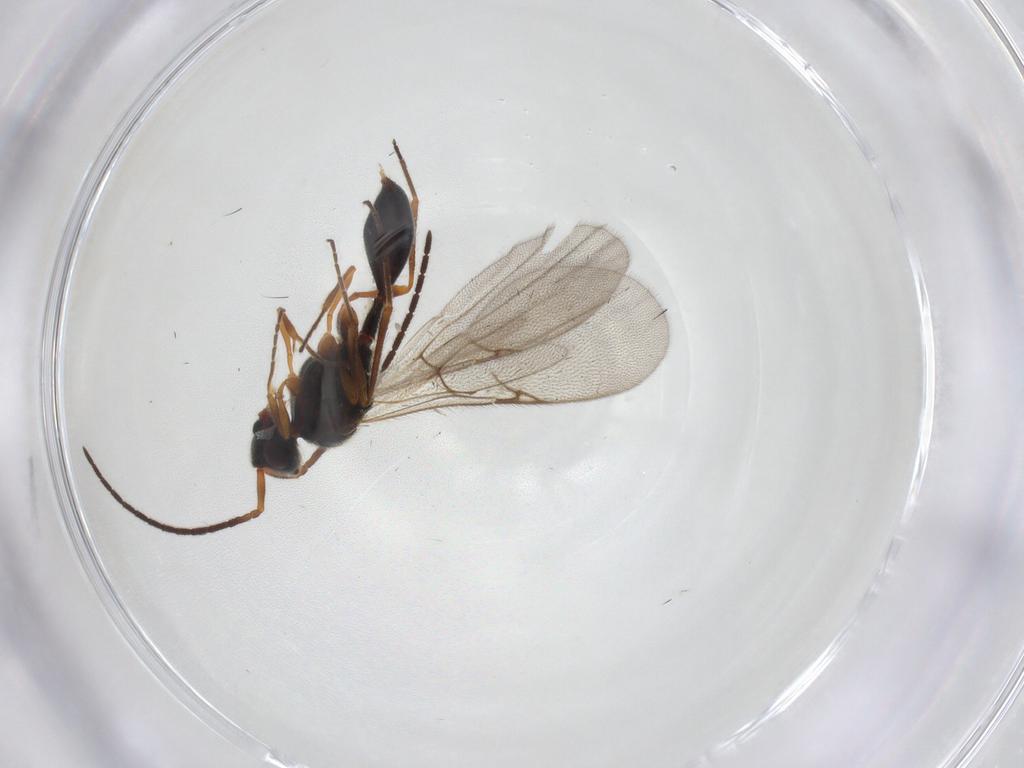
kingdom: Animalia
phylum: Arthropoda
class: Insecta
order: Hymenoptera
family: Diapriidae
